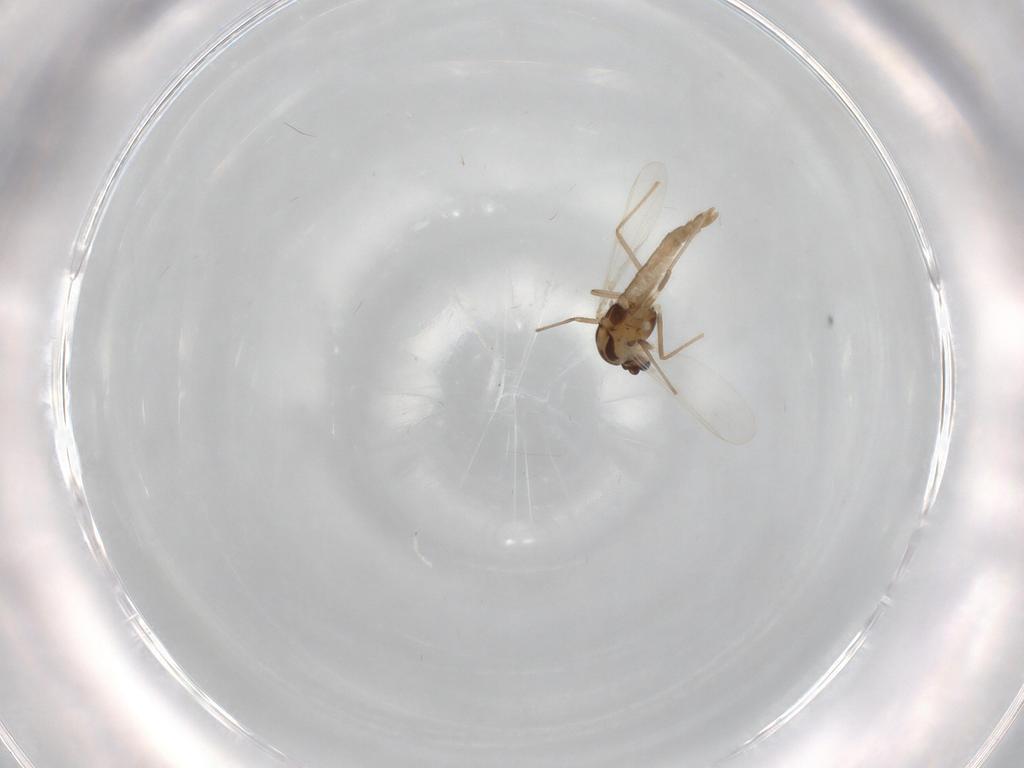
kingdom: Animalia
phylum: Arthropoda
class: Insecta
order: Diptera
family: Chironomidae
